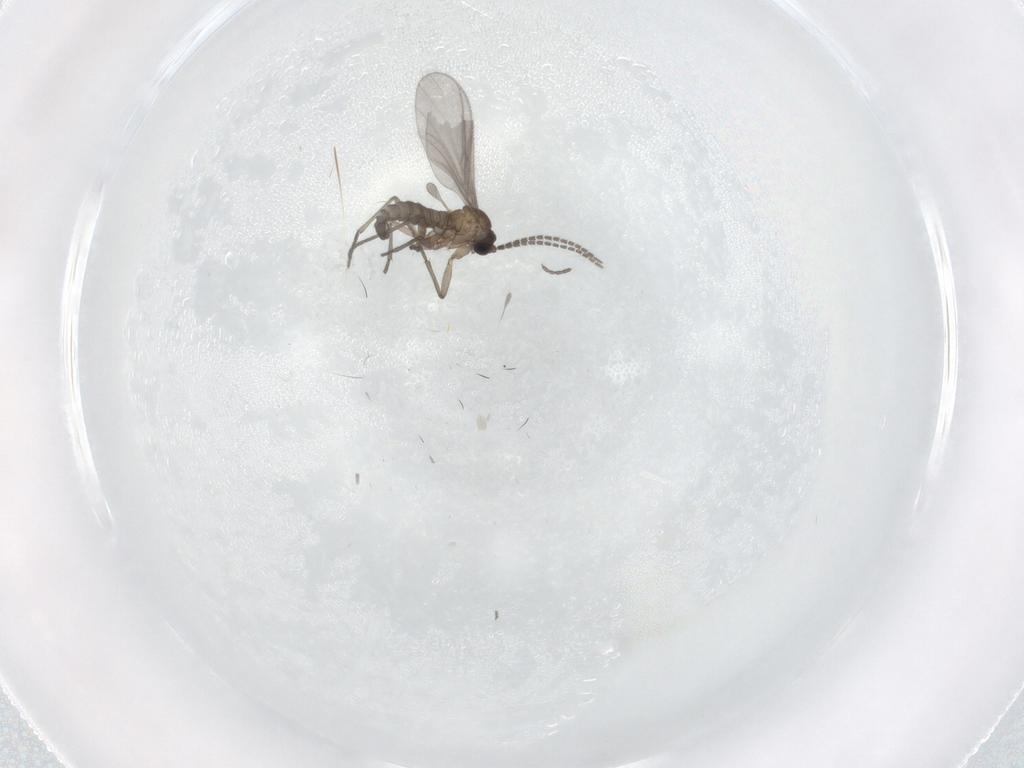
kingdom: Animalia
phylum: Arthropoda
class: Insecta
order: Diptera
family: Sciaridae
